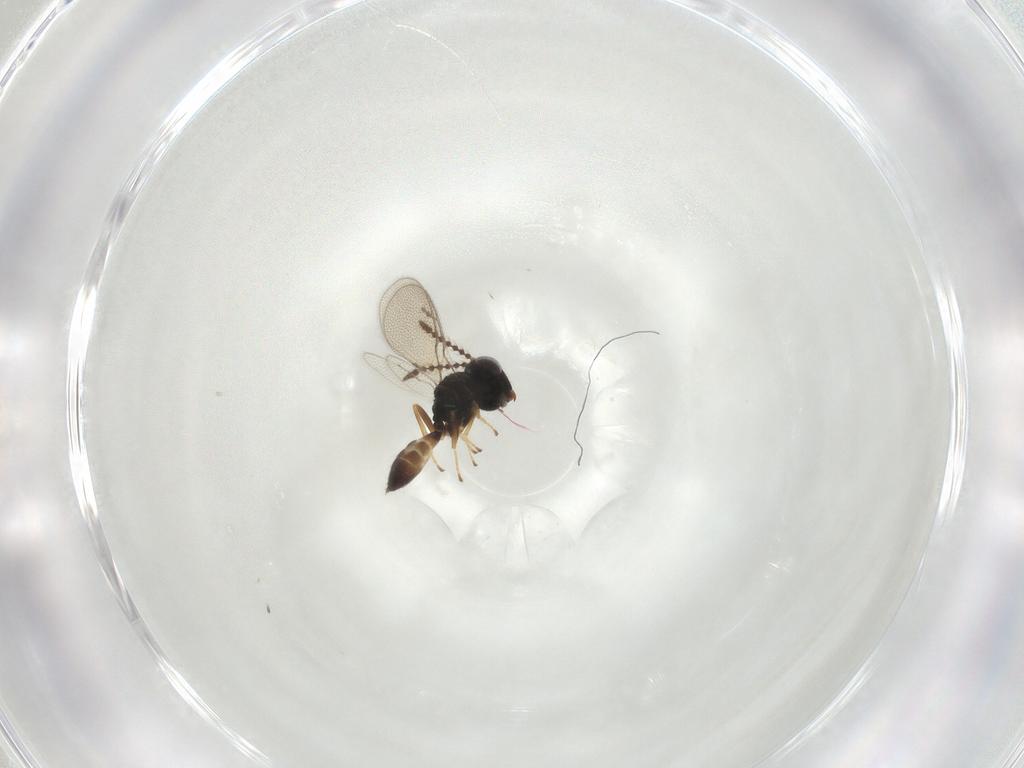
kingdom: Animalia
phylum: Arthropoda
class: Insecta
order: Hymenoptera
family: Pteromalidae
